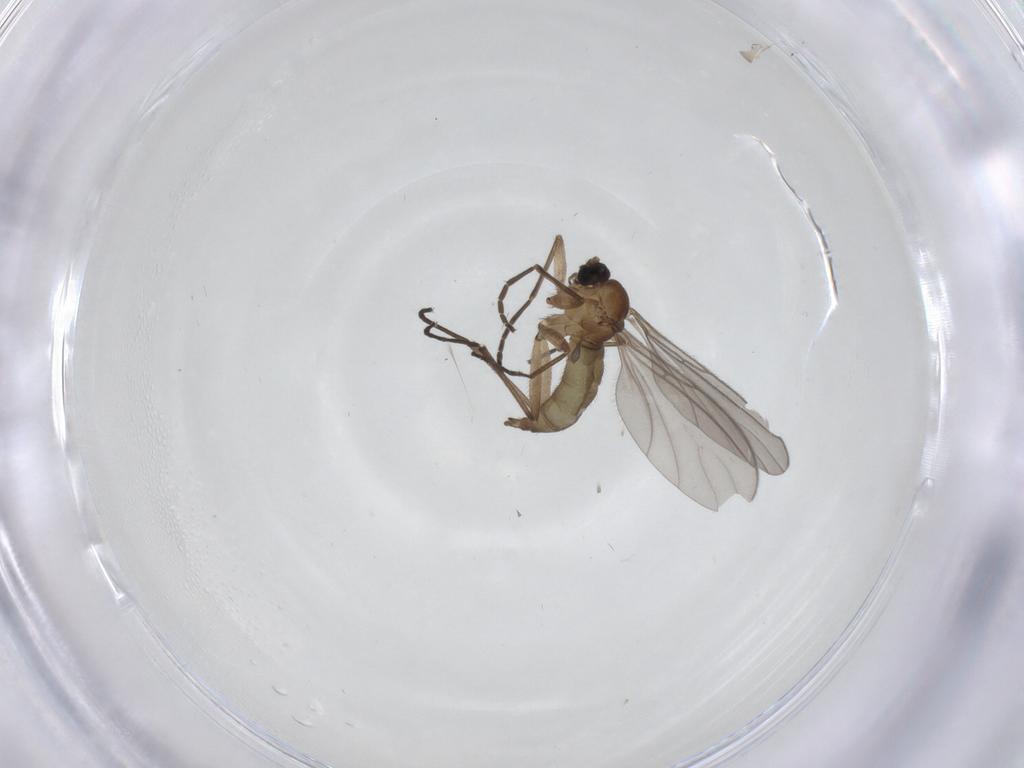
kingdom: Animalia
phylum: Arthropoda
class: Insecta
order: Diptera
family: Sciaridae
